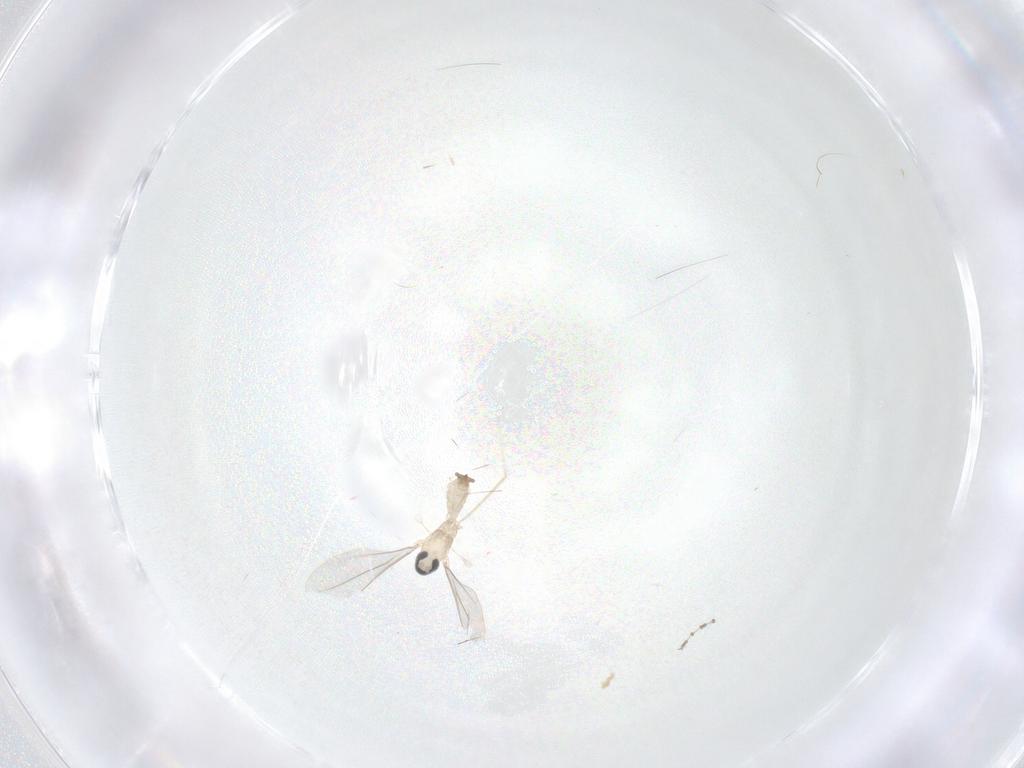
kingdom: Animalia
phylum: Arthropoda
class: Insecta
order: Diptera
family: Cecidomyiidae
